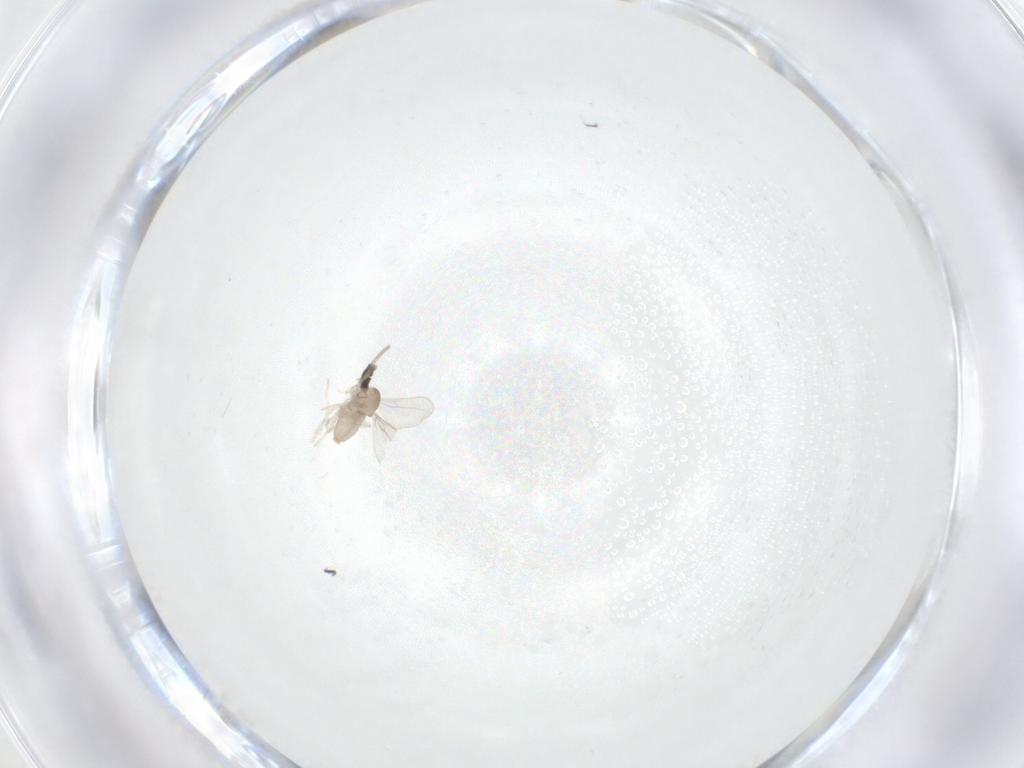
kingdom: Animalia
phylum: Arthropoda
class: Insecta
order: Diptera
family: Cecidomyiidae
